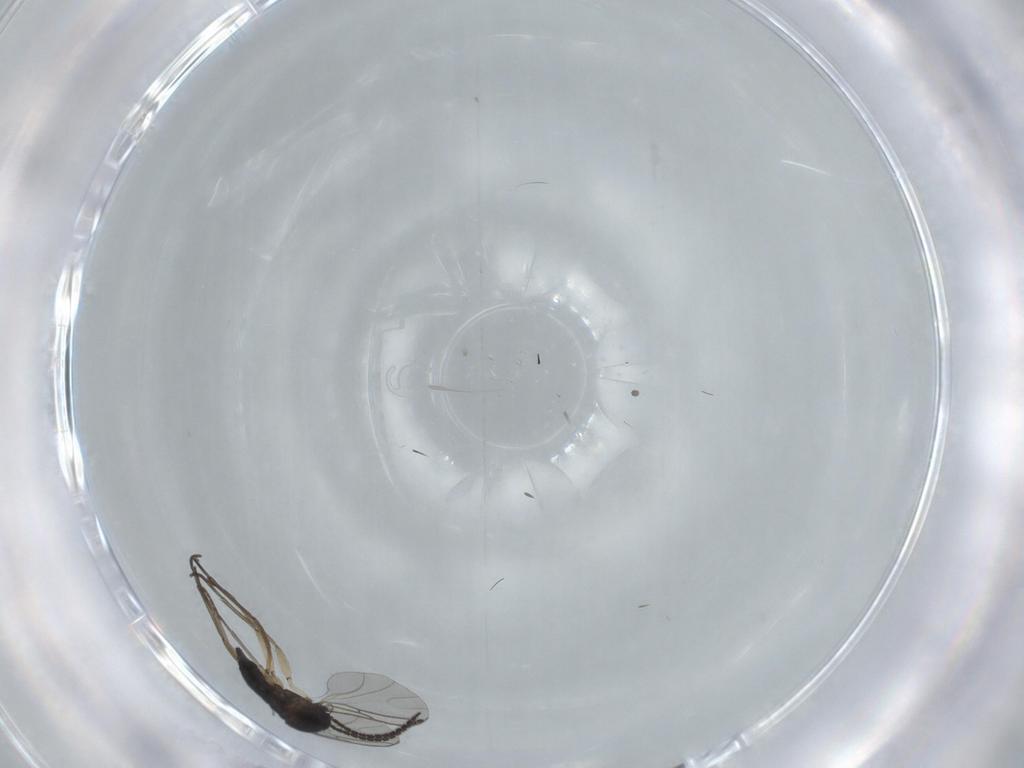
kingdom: Animalia
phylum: Arthropoda
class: Insecta
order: Diptera
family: Sciaridae
